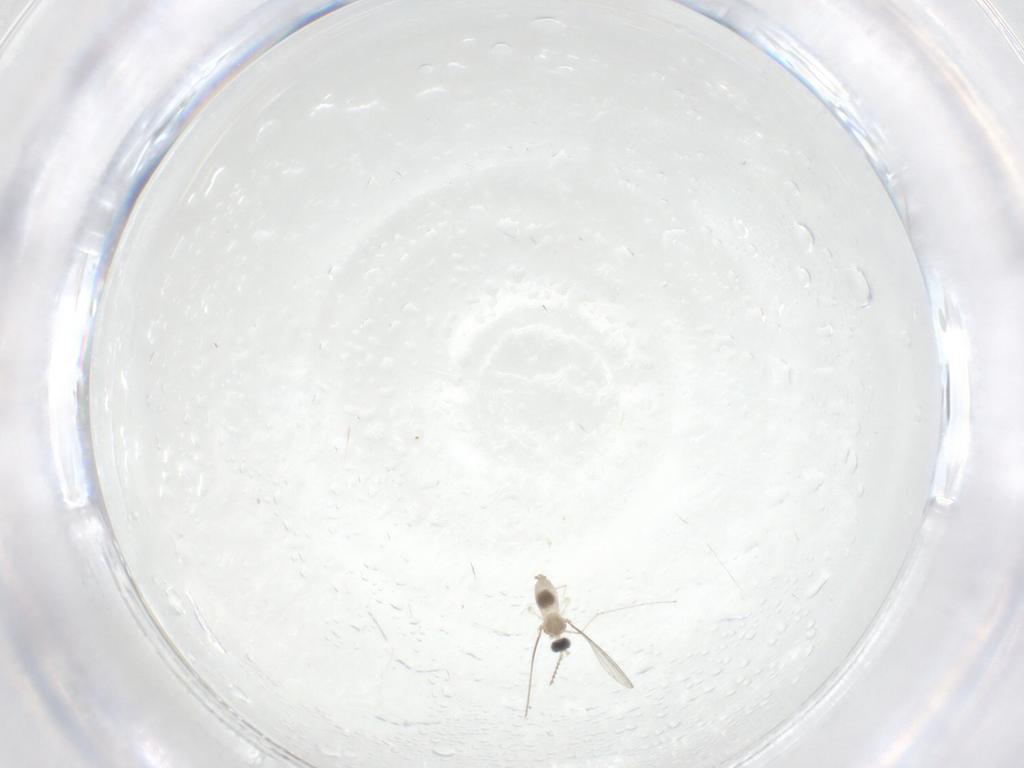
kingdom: Animalia
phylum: Arthropoda
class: Insecta
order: Diptera
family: Cecidomyiidae
